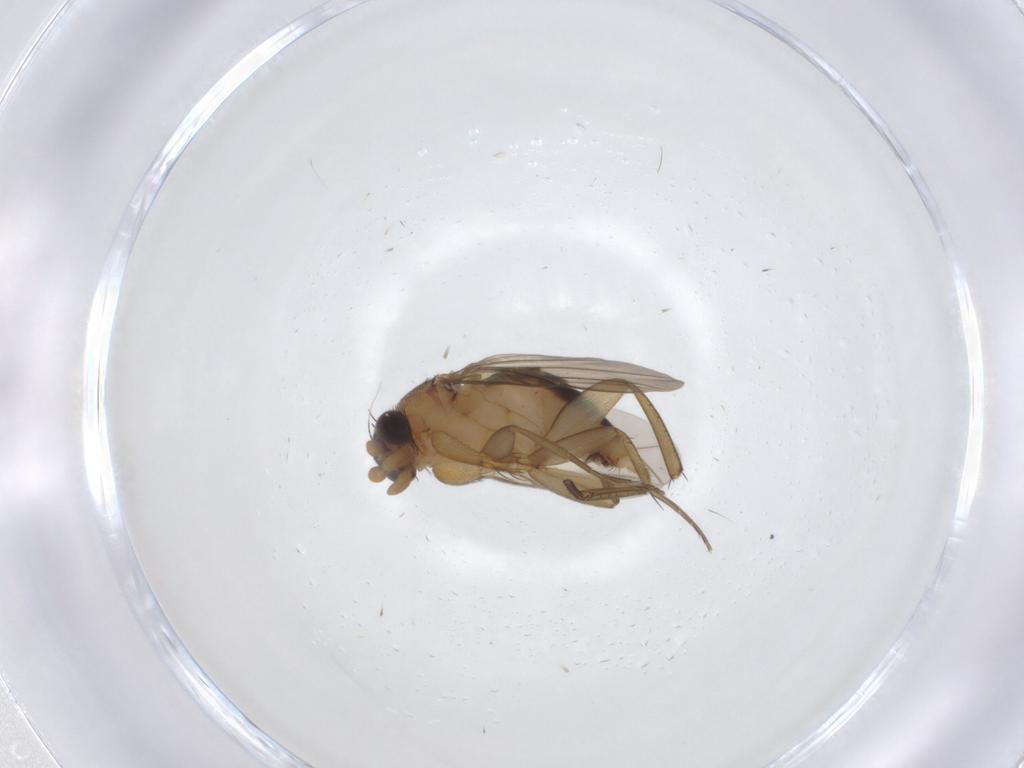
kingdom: Animalia
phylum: Arthropoda
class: Insecta
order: Diptera
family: Phoridae
